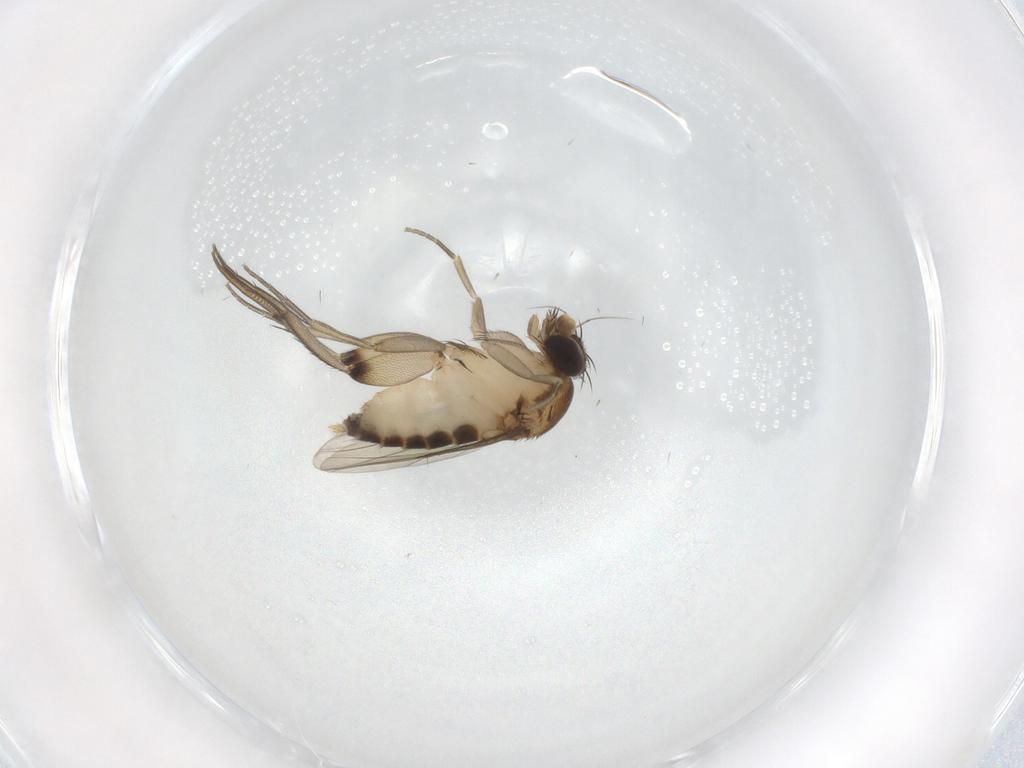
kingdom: Animalia
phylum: Arthropoda
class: Insecta
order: Diptera
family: Phoridae
